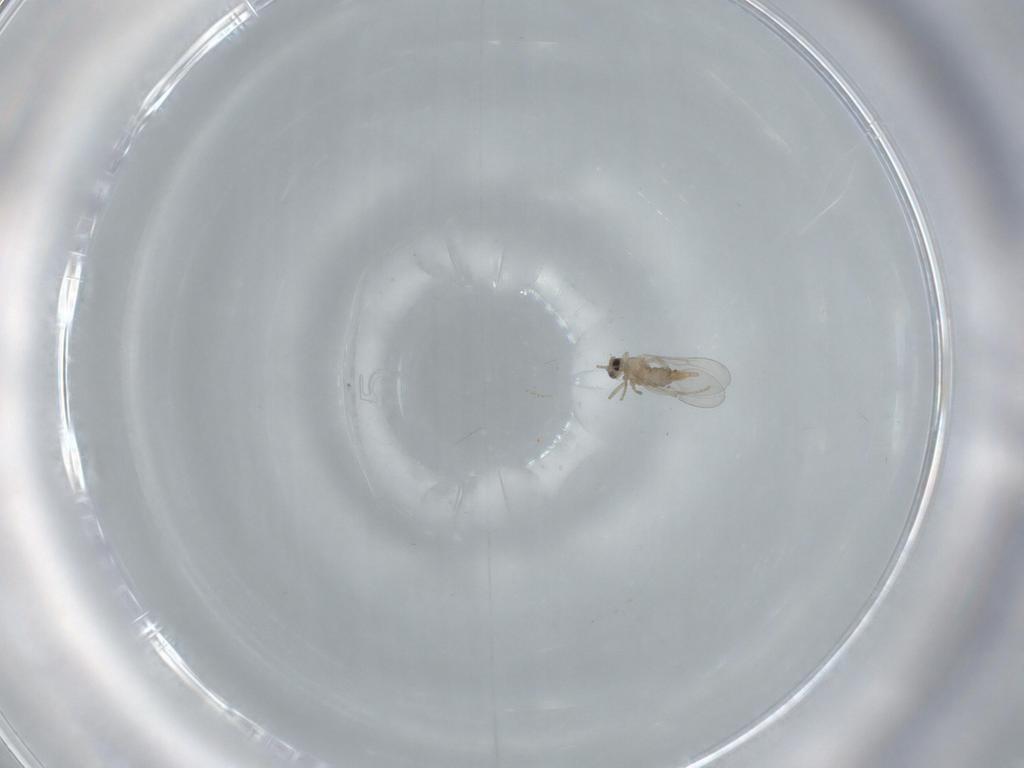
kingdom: Animalia
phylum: Arthropoda
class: Insecta
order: Diptera
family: Cecidomyiidae
